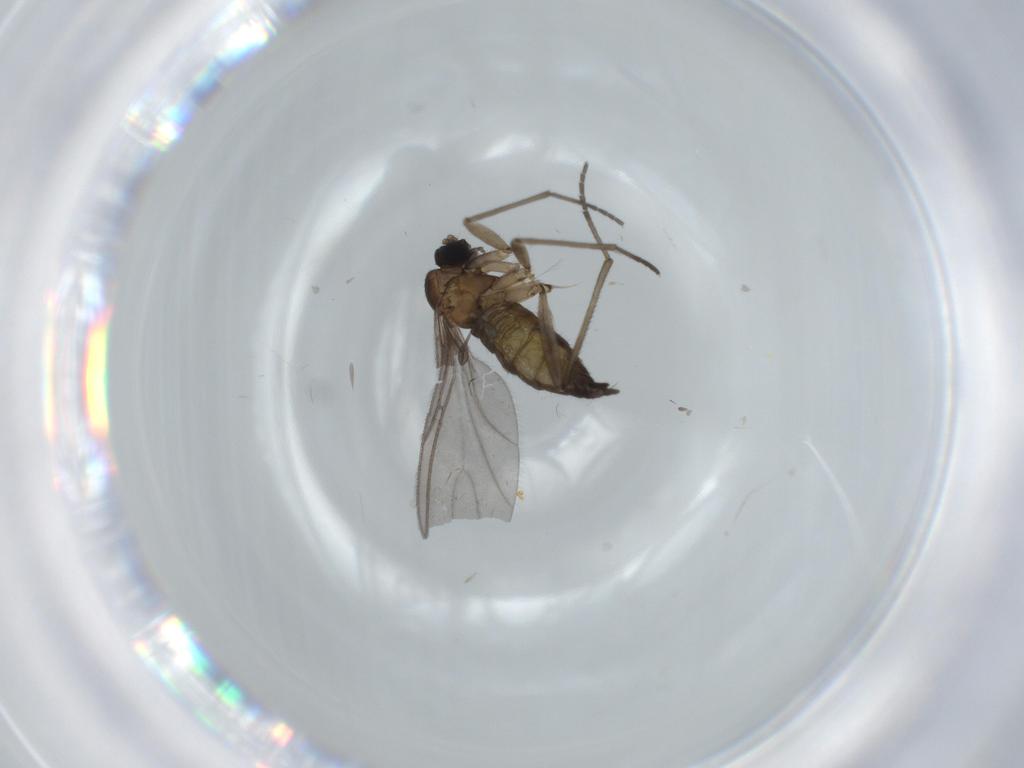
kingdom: Animalia
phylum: Arthropoda
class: Insecta
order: Diptera
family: Sciaridae
